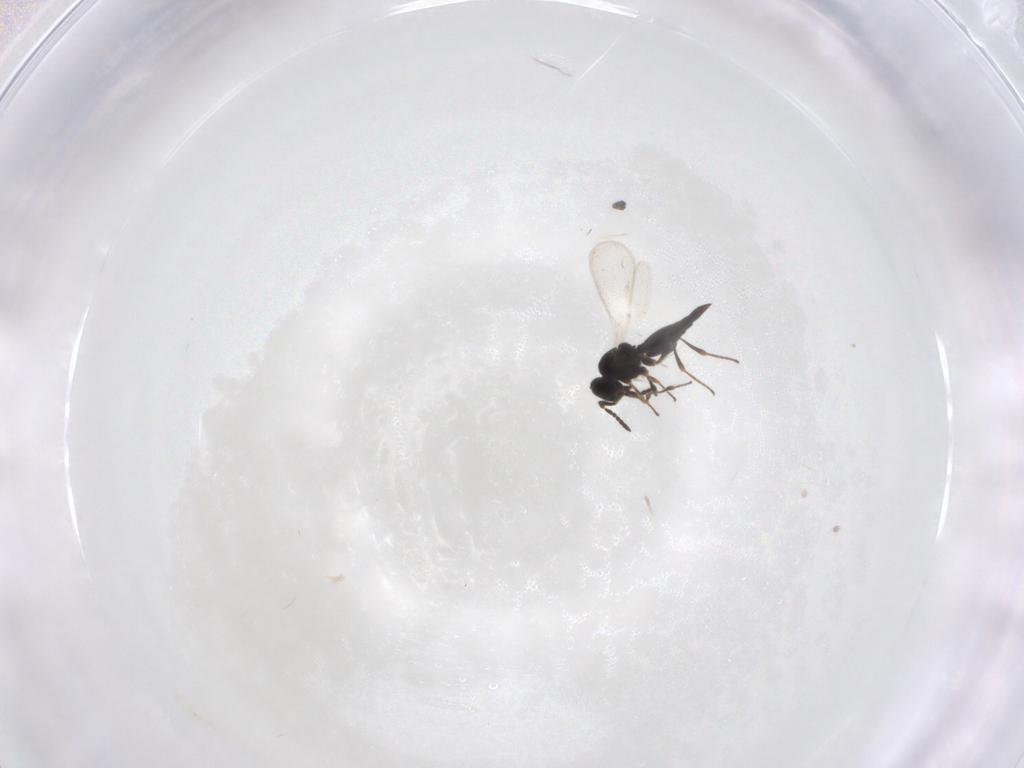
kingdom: Animalia
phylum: Arthropoda
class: Insecta
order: Hymenoptera
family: Platygastridae
